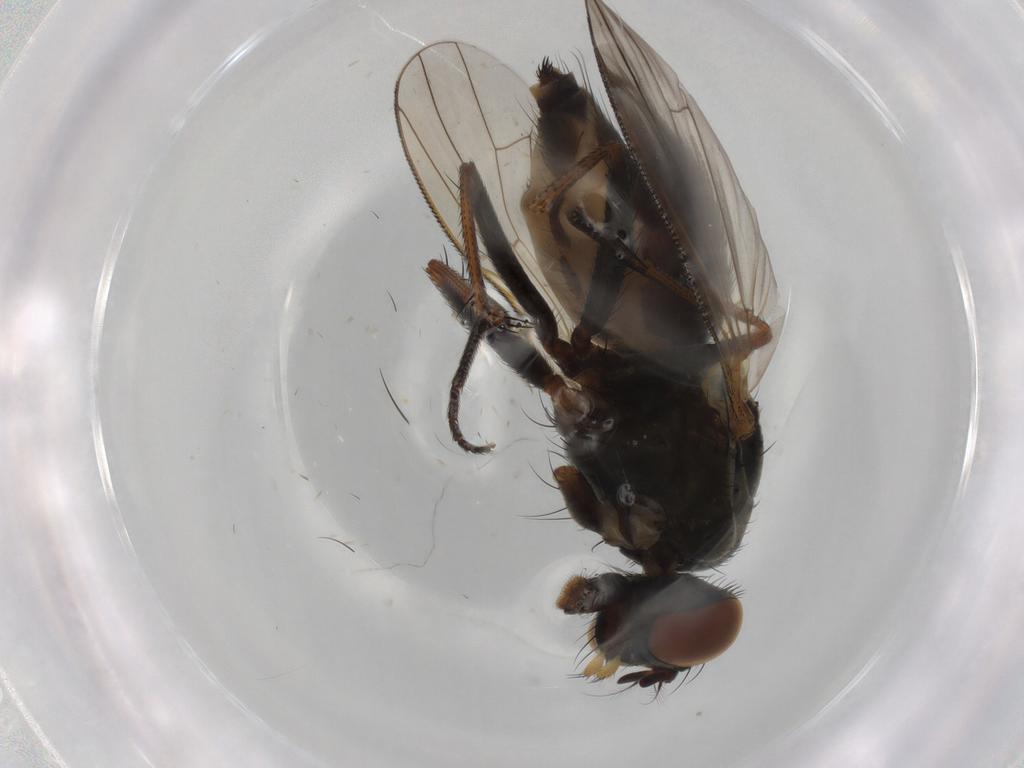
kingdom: Animalia
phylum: Arthropoda
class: Insecta
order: Diptera
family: Muscidae
